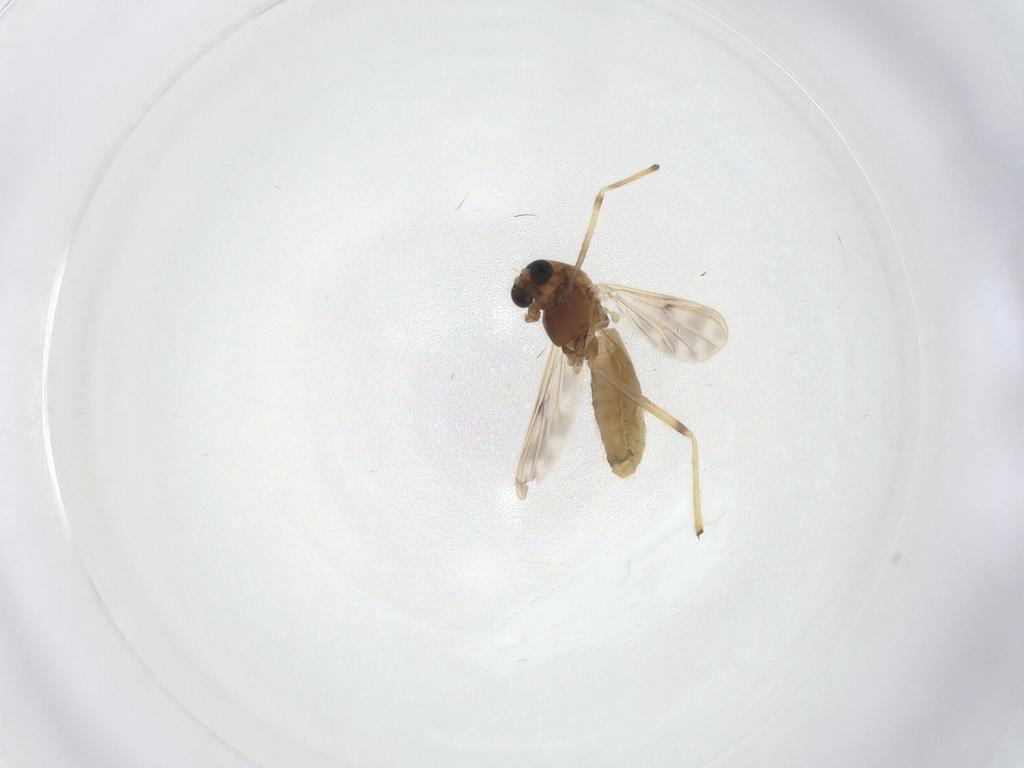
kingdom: Animalia
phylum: Arthropoda
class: Insecta
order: Diptera
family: Chironomidae
